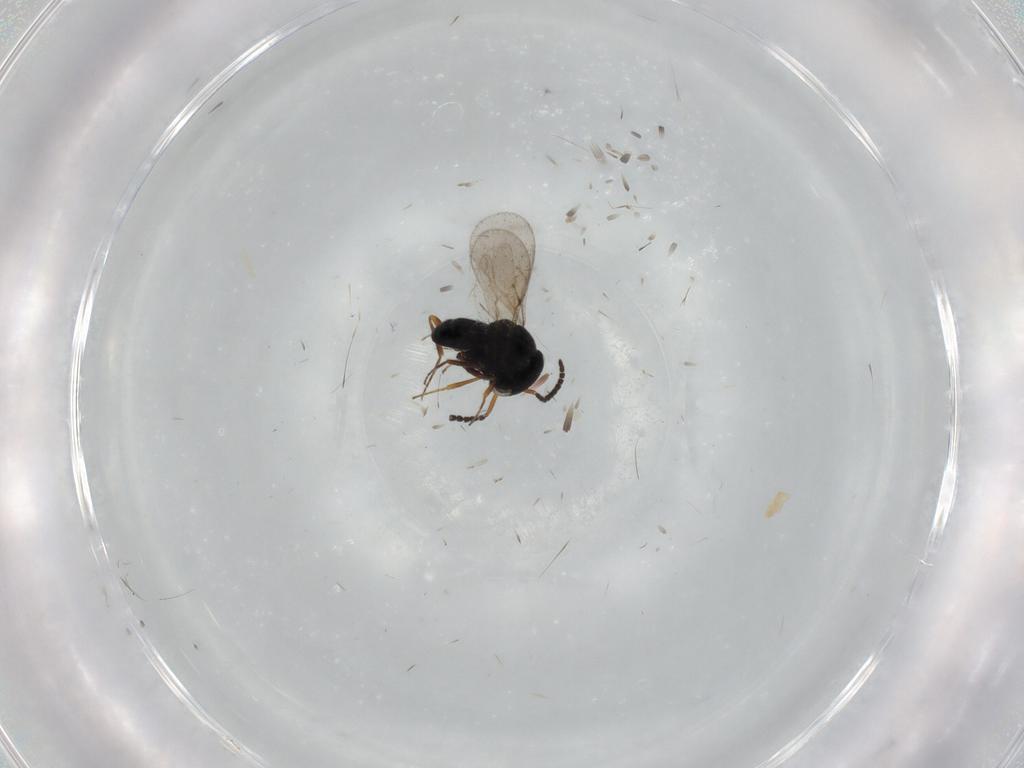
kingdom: Animalia
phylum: Arthropoda
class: Insecta
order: Hymenoptera
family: Scelionidae
